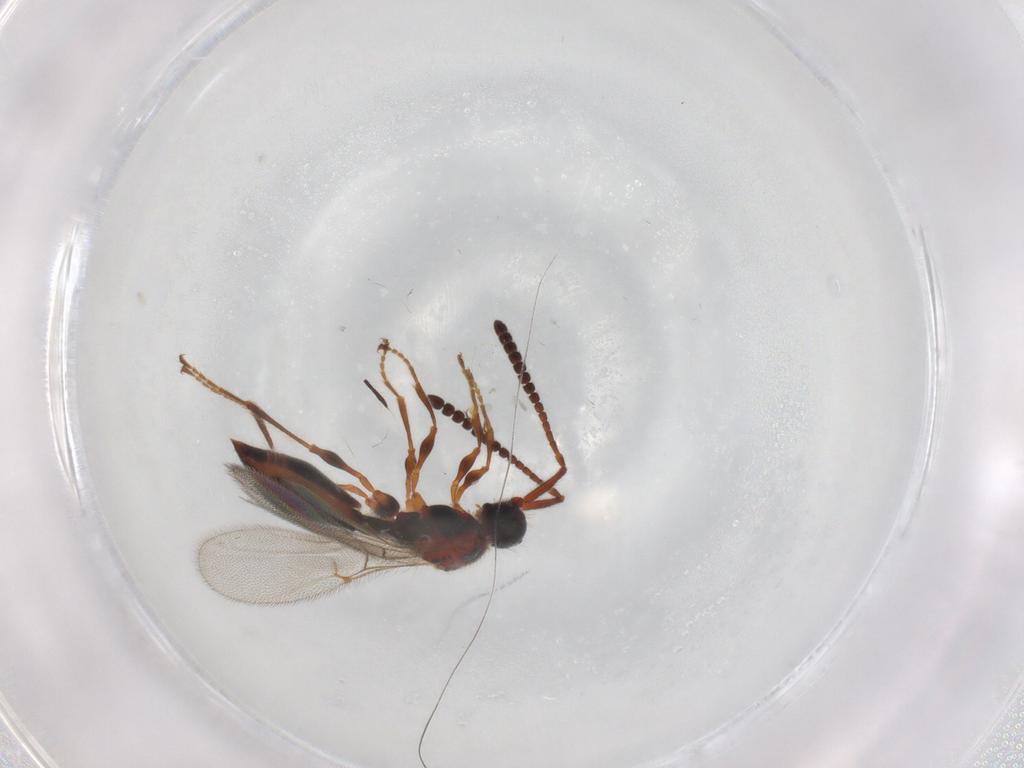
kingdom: Animalia
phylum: Arthropoda
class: Insecta
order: Hymenoptera
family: Diapriidae
